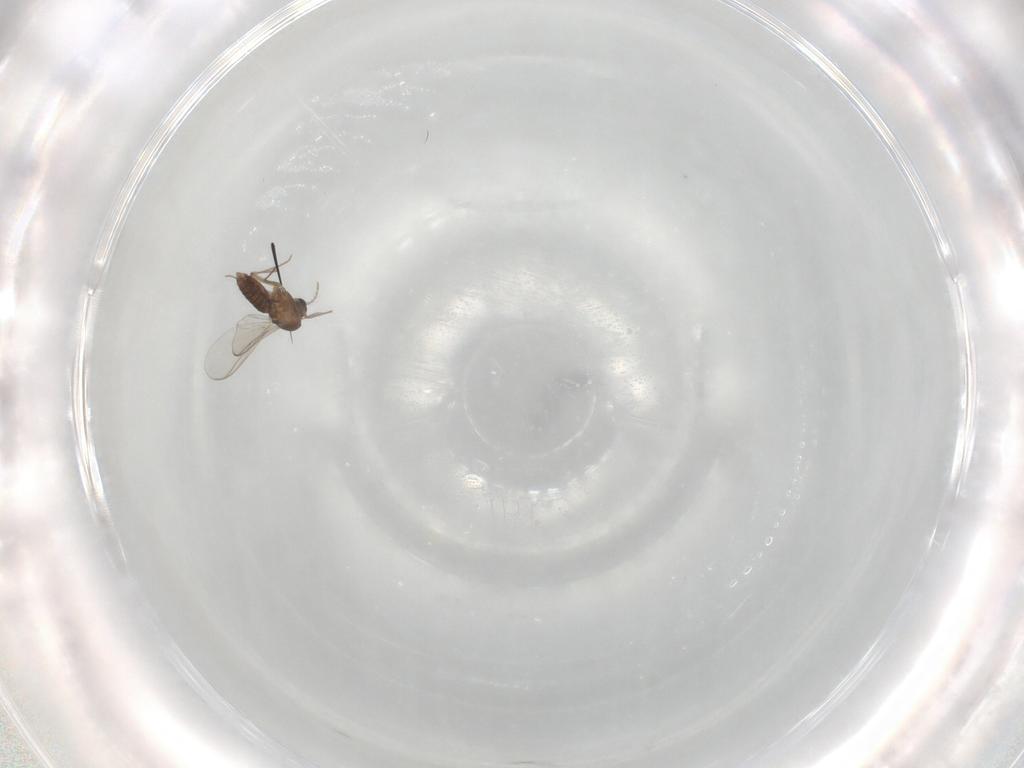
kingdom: Animalia
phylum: Arthropoda
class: Insecta
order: Diptera
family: Chironomidae
